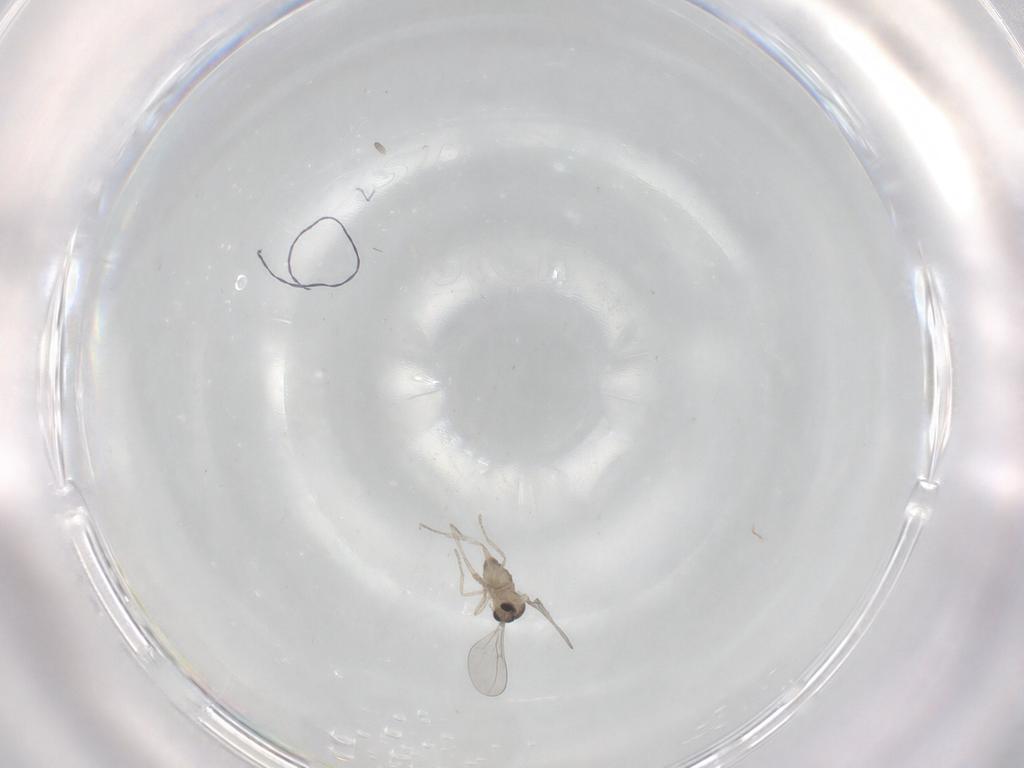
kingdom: Animalia
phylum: Arthropoda
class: Insecta
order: Diptera
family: Cecidomyiidae
